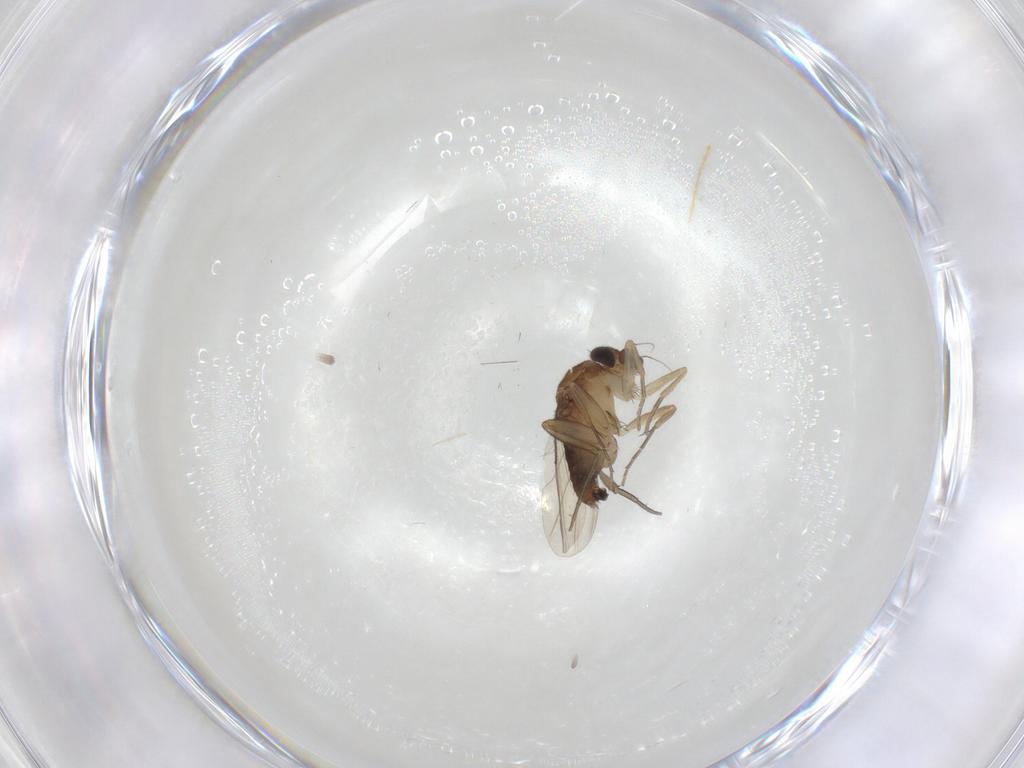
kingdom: Animalia
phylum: Arthropoda
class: Insecta
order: Diptera
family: Phoridae
